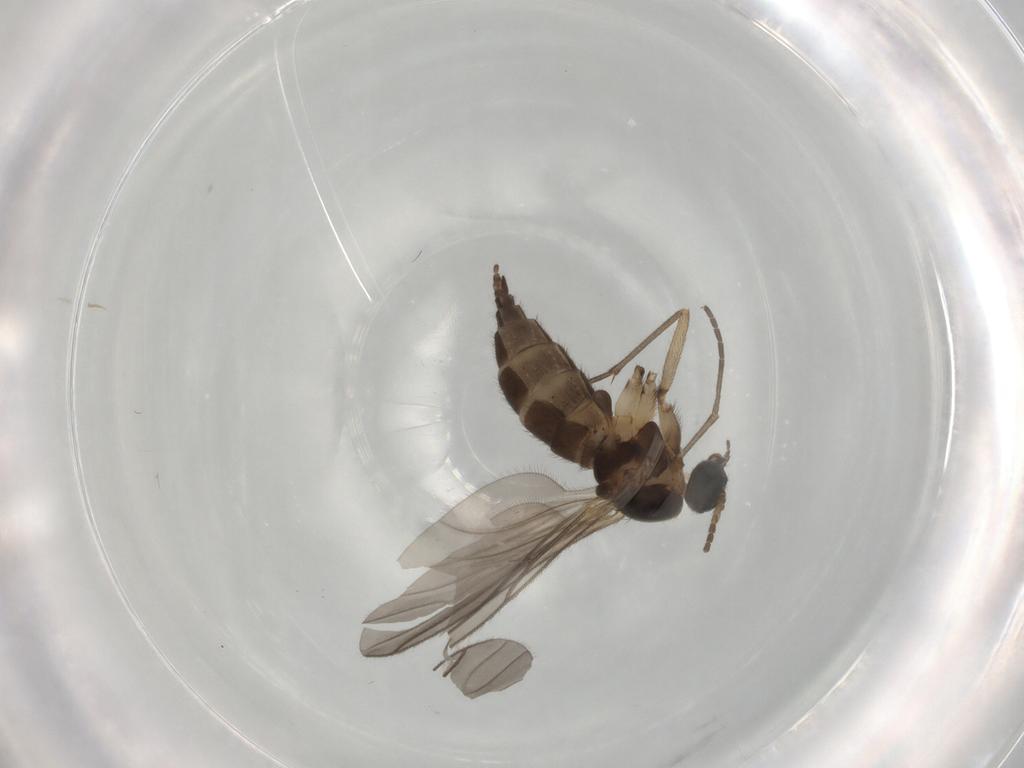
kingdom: Animalia
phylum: Arthropoda
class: Insecta
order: Diptera
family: Sciaridae
